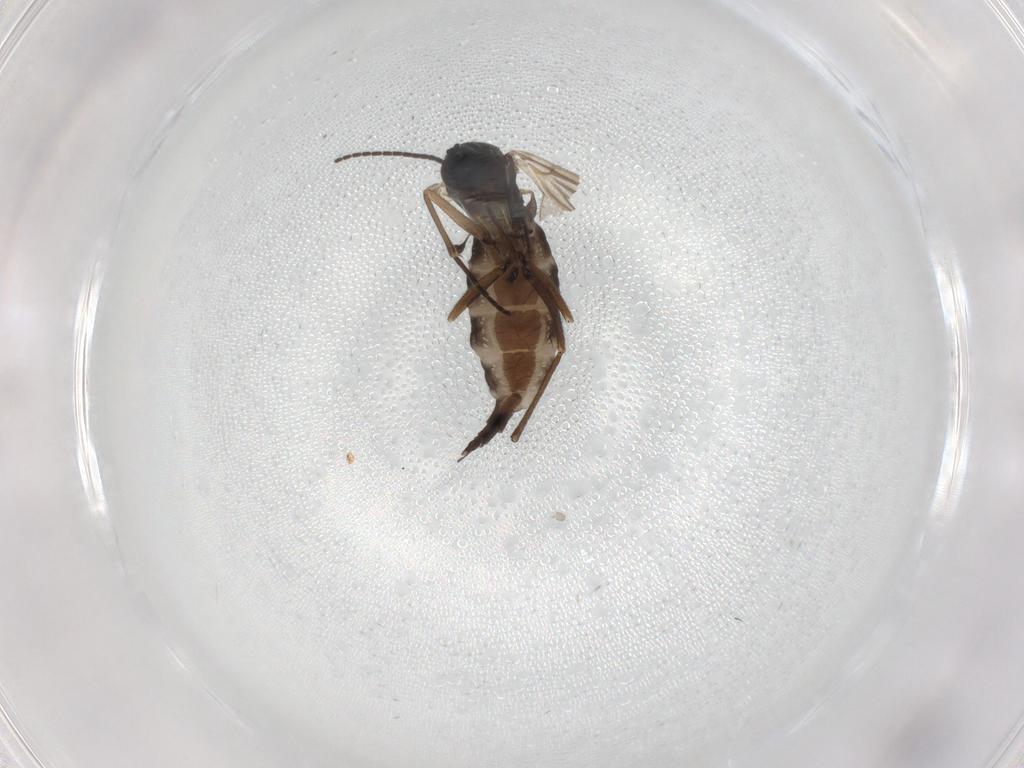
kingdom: Animalia
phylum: Arthropoda
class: Insecta
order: Diptera
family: Sciaridae
